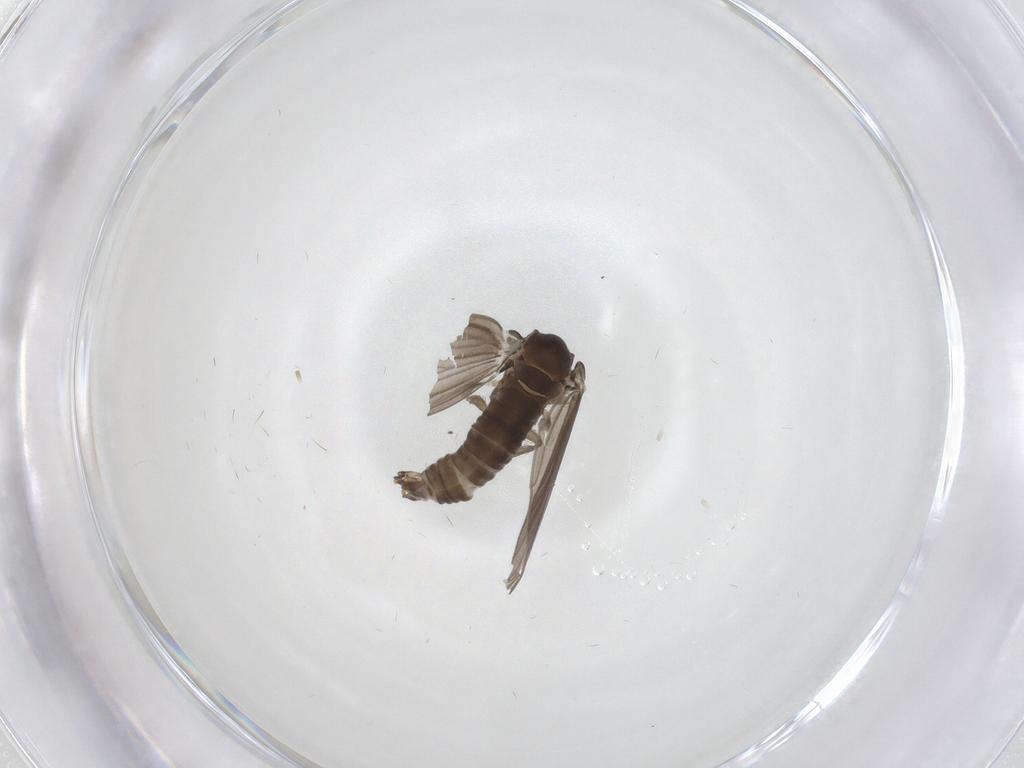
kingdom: Animalia
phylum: Arthropoda
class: Insecta
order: Diptera
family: Psychodidae
